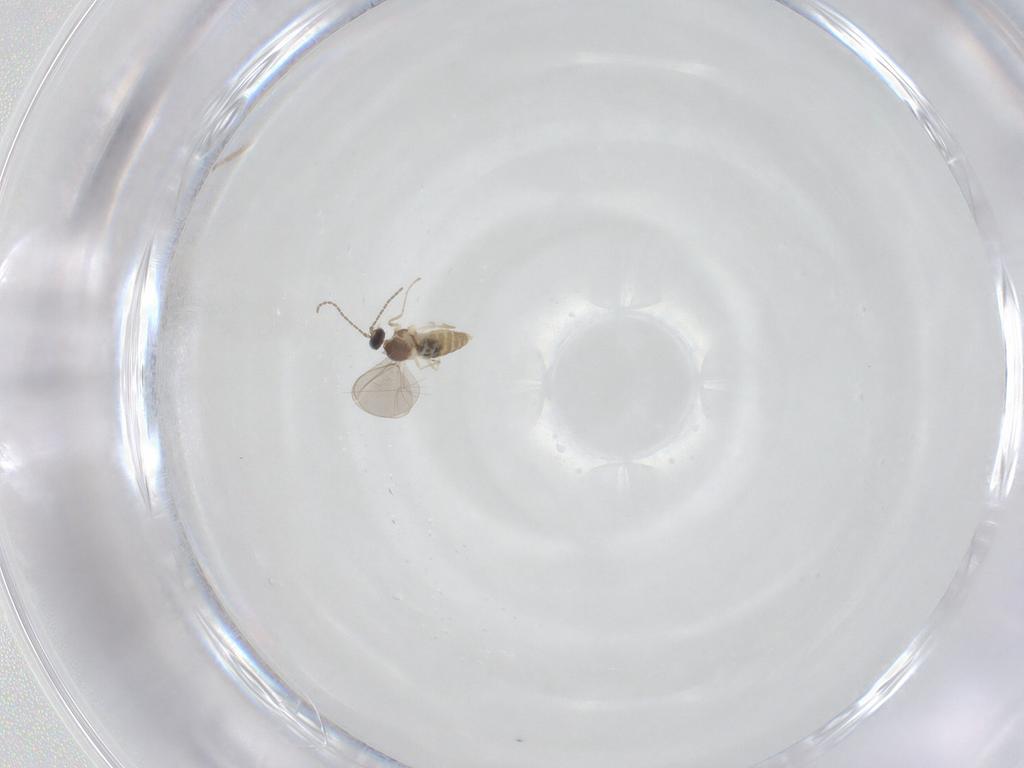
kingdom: Animalia
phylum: Arthropoda
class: Insecta
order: Diptera
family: Cecidomyiidae
